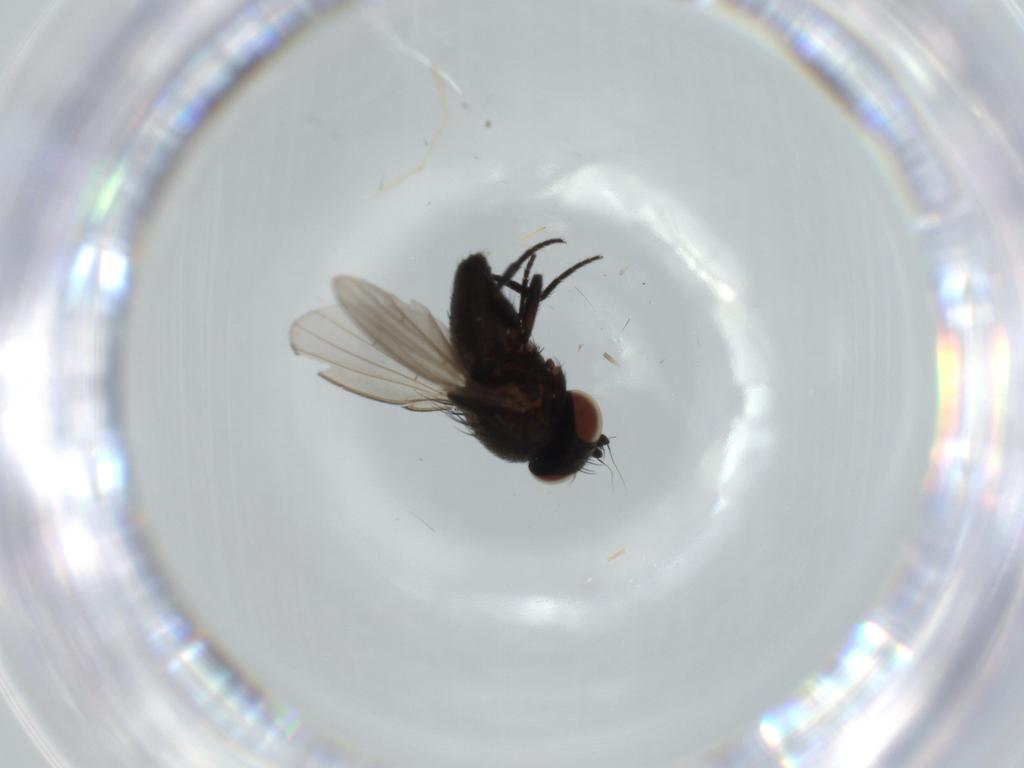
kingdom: Animalia
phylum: Arthropoda
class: Insecta
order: Diptera
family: Milichiidae
